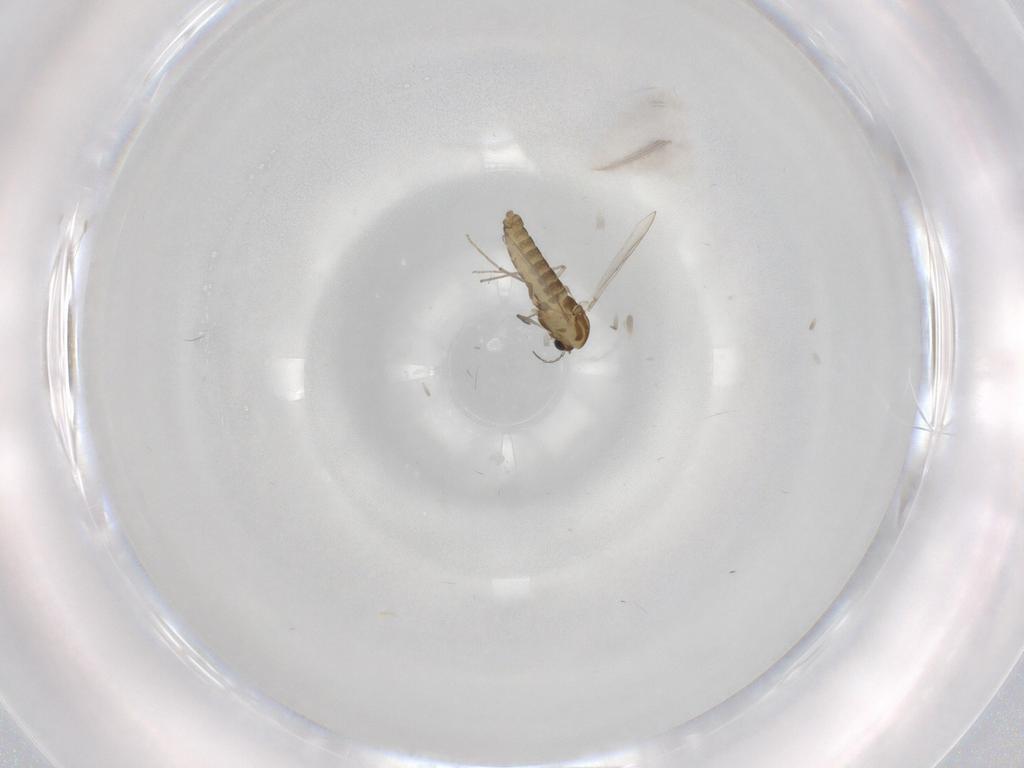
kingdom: Animalia
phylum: Arthropoda
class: Insecta
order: Diptera
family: Chironomidae
